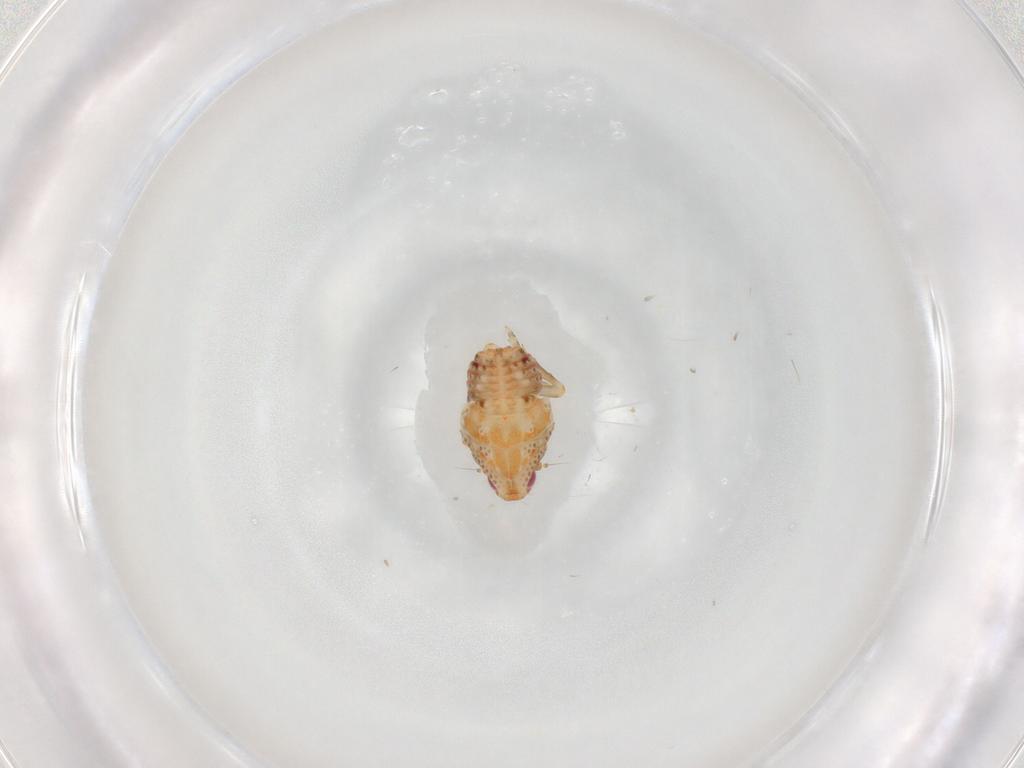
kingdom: Animalia
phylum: Arthropoda
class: Insecta
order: Hemiptera
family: Flatidae
